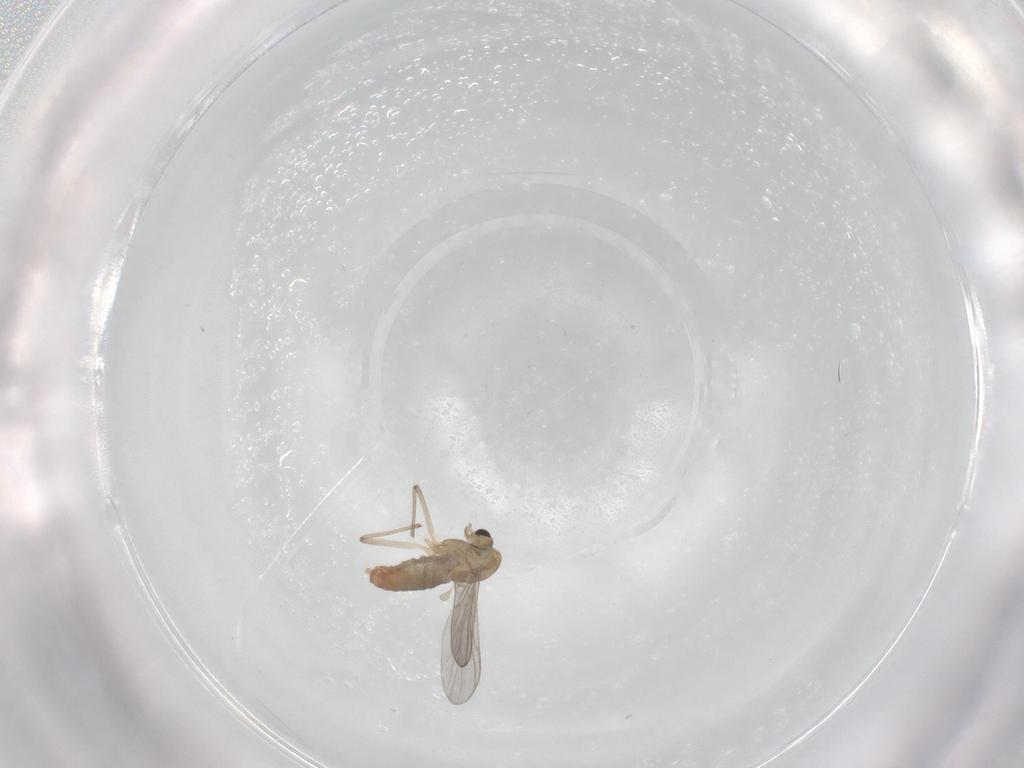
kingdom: Animalia
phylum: Arthropoda
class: Insecta
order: Diptera
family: Chironomidae
